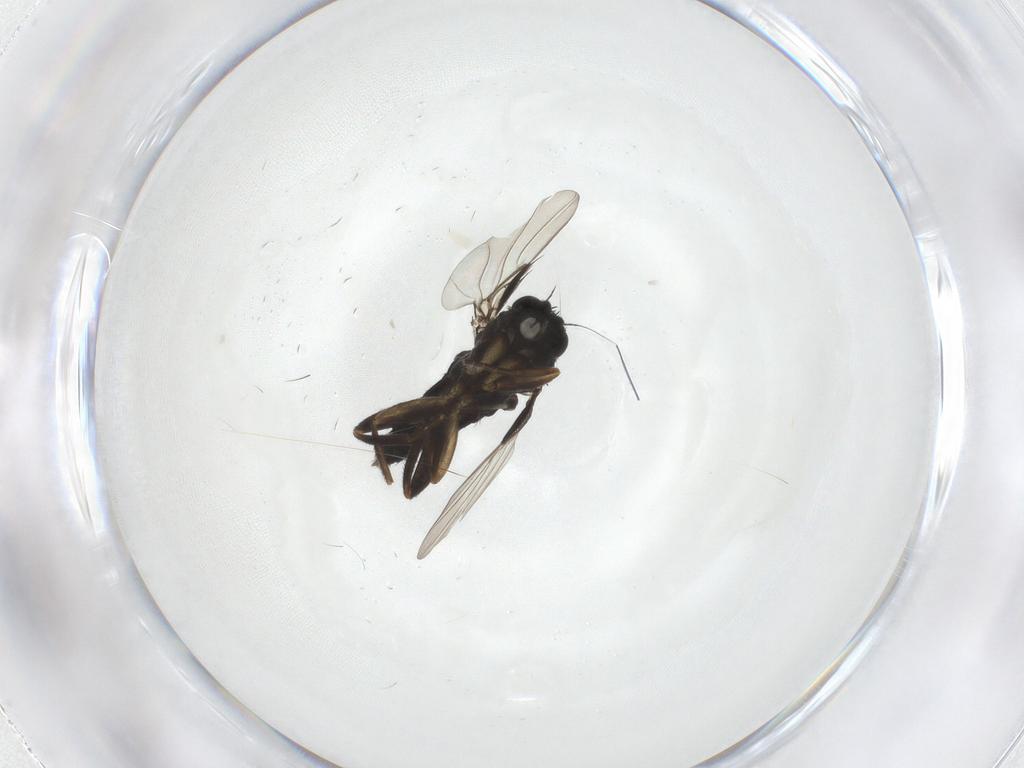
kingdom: Animalia
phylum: Arthropoda
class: Insecta
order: Diptera
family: Phoridae
